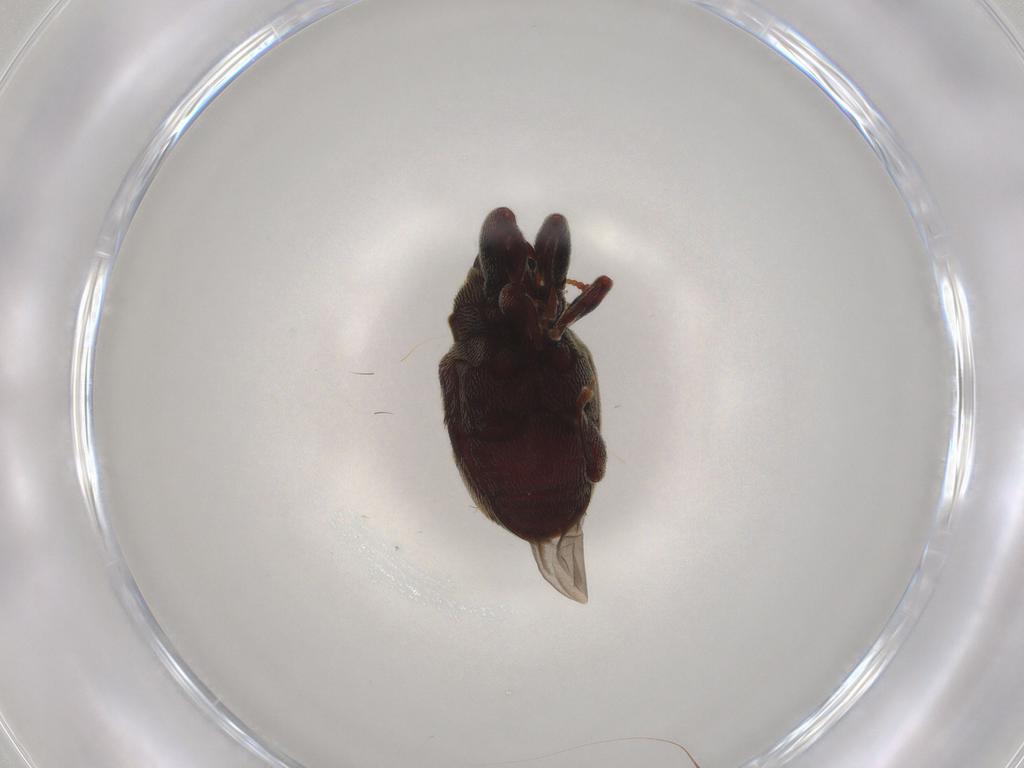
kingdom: Animalia
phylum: Arthropoda
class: Insecta
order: Coleoptera
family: Curculionidae
